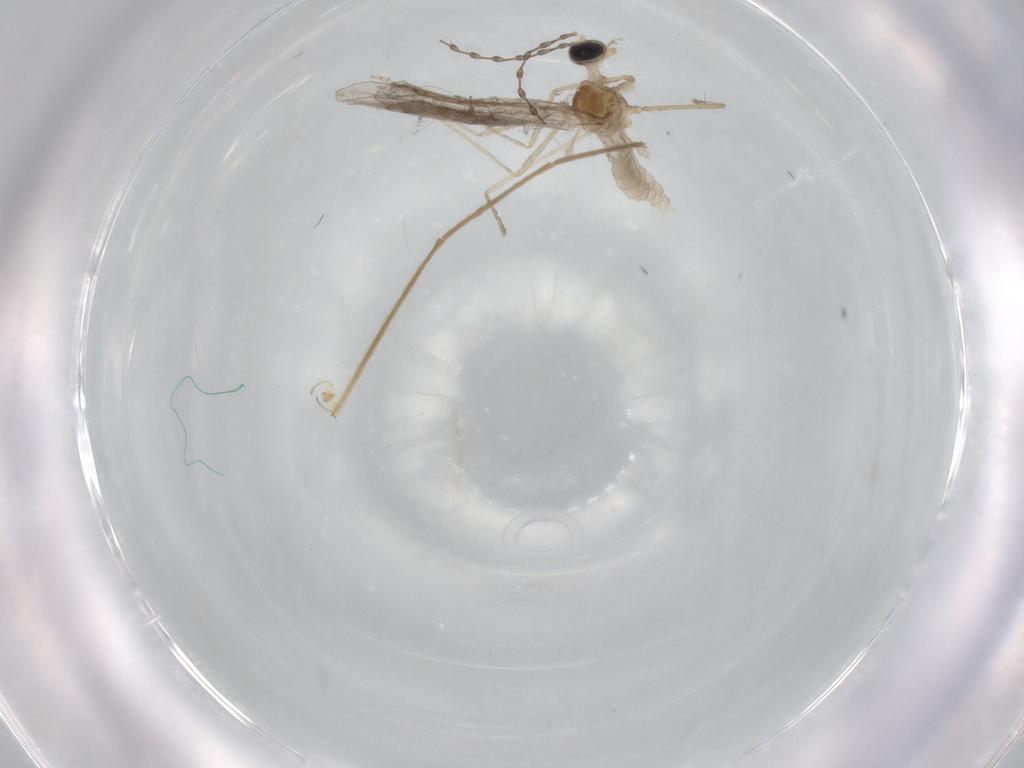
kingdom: Animalia
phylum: Arthropoda
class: Insecta
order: Diptera
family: Cecidomyiidae
